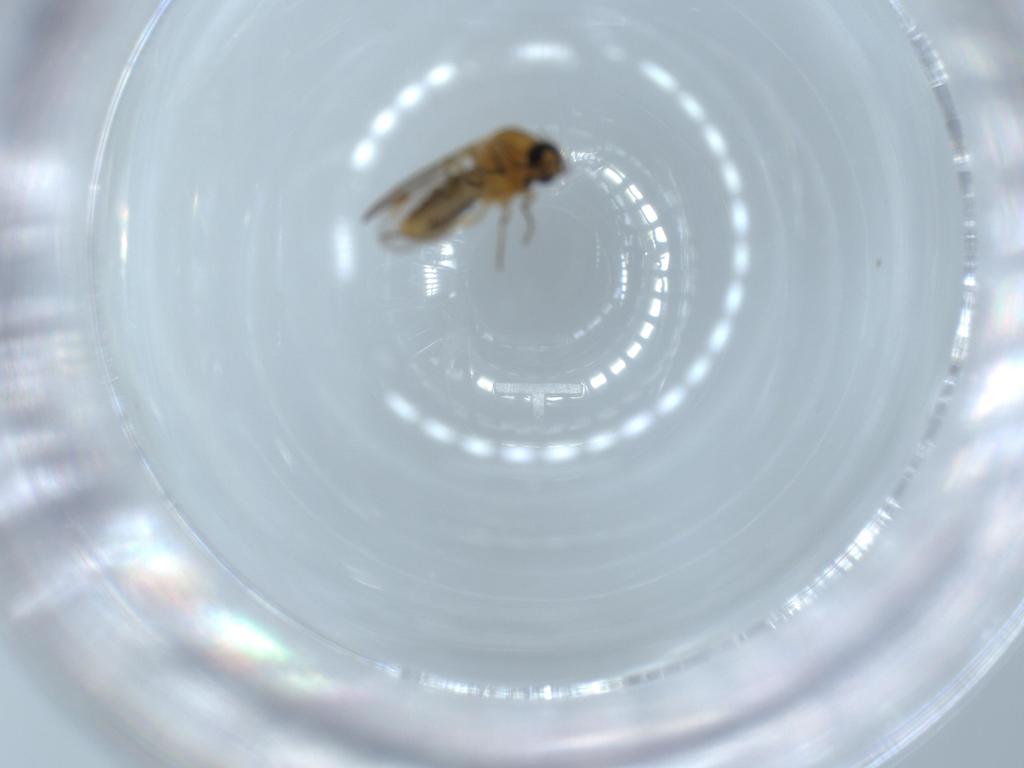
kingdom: Animalia
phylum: Arthropoda
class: Insecta
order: Diptera
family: Ceratopogonidae
